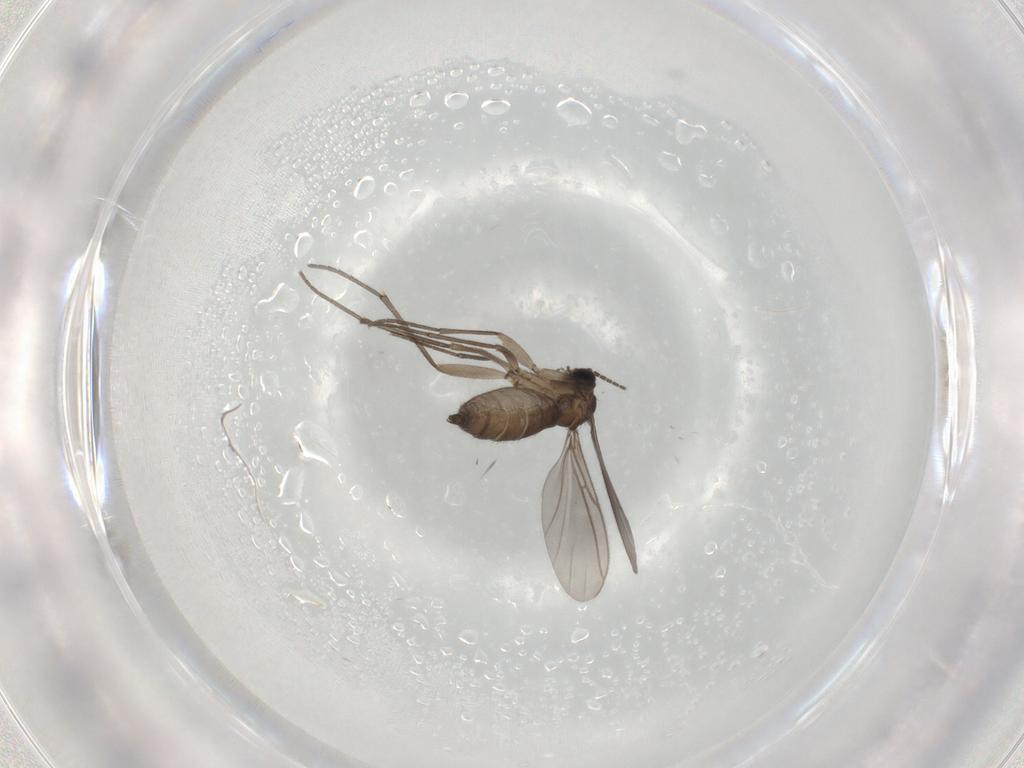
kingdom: Animalia
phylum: Arthropoda
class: Insecta
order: Diptera
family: Sciaridae
